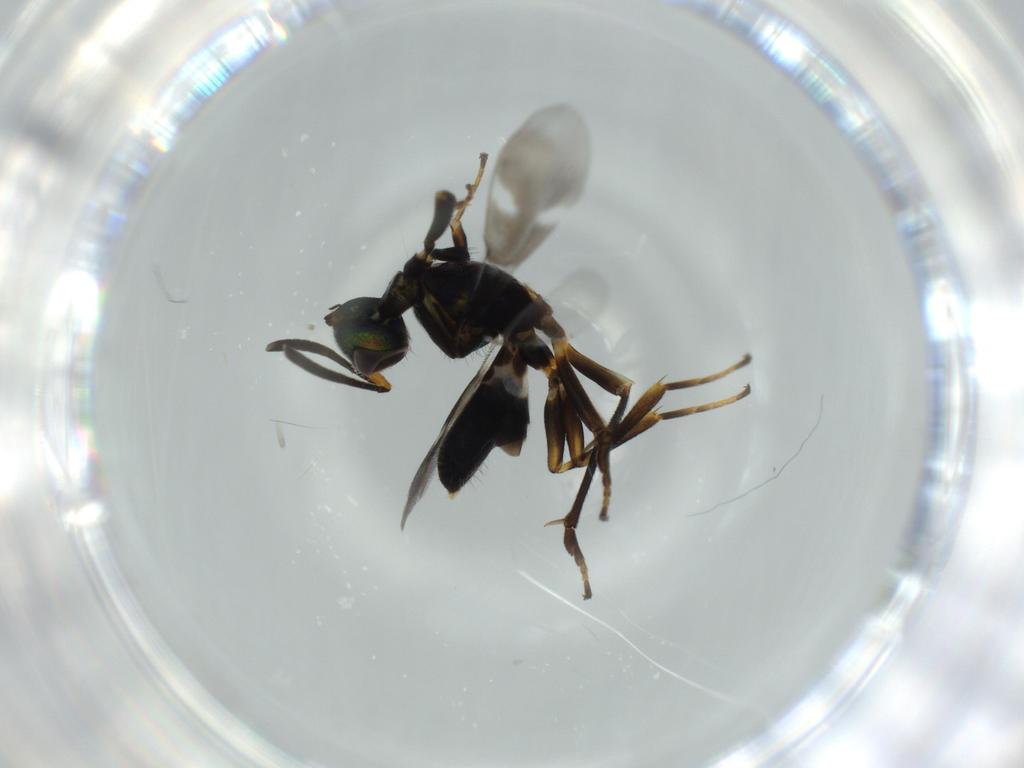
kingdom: Animalia
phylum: Arthropoda
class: Insecta
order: Hymenoptera
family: Eupelmidae
